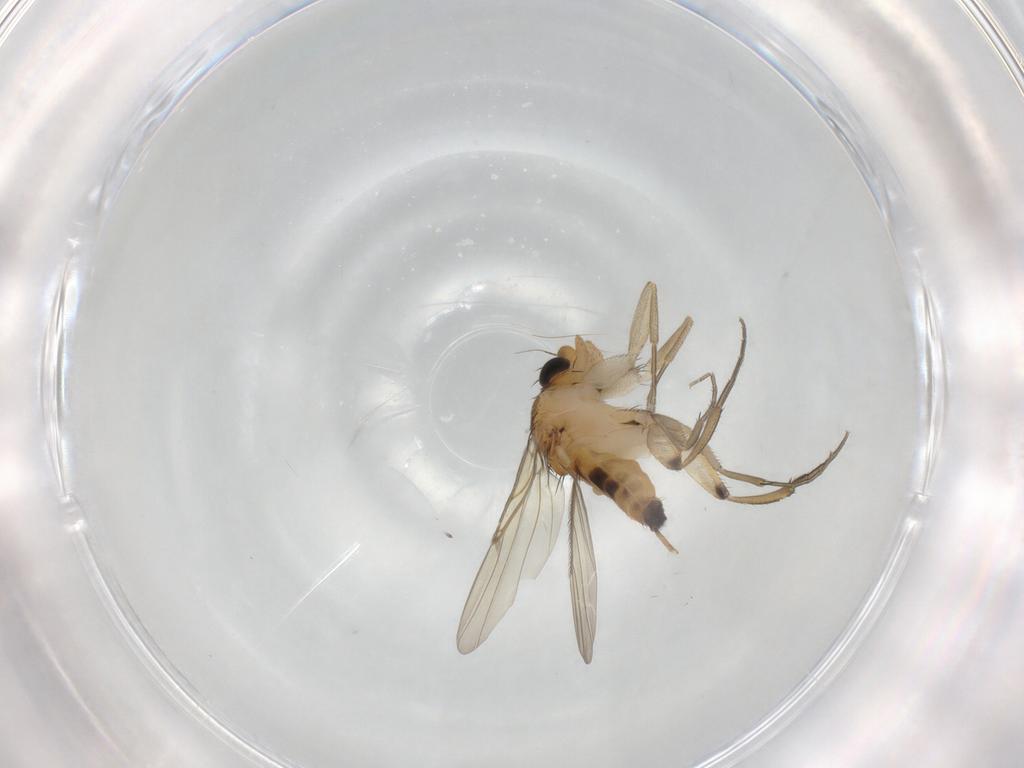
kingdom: Animalia
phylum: Arthropoda
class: Insecta
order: Diptera
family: Phoridae
